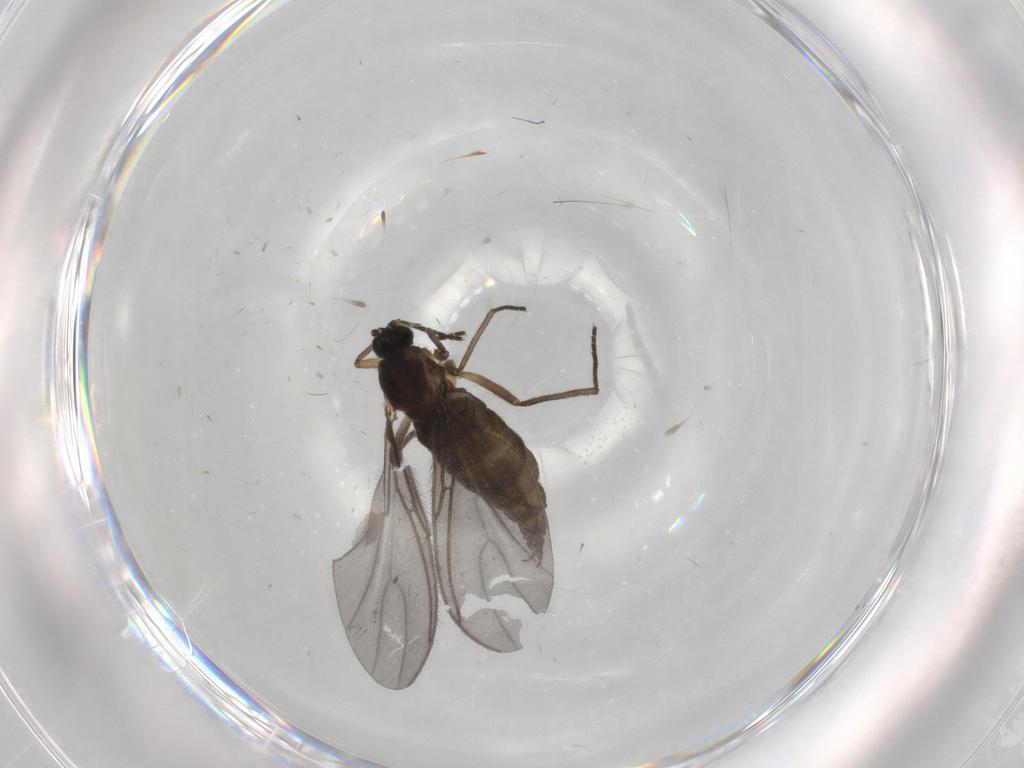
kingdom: Animalia
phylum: Arthropoda
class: Insecta
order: Diptera
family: Sciaridae
